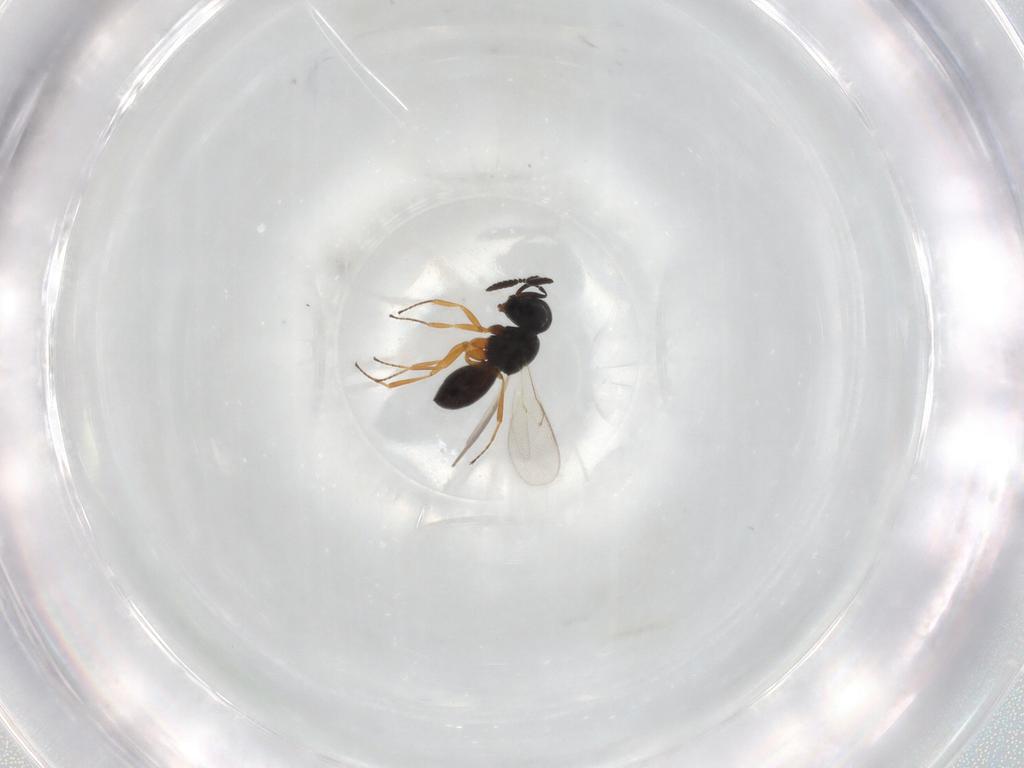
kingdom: Animalia
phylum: Arthropoda
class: Insecta
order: Hymenoptera
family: Scelionidae
